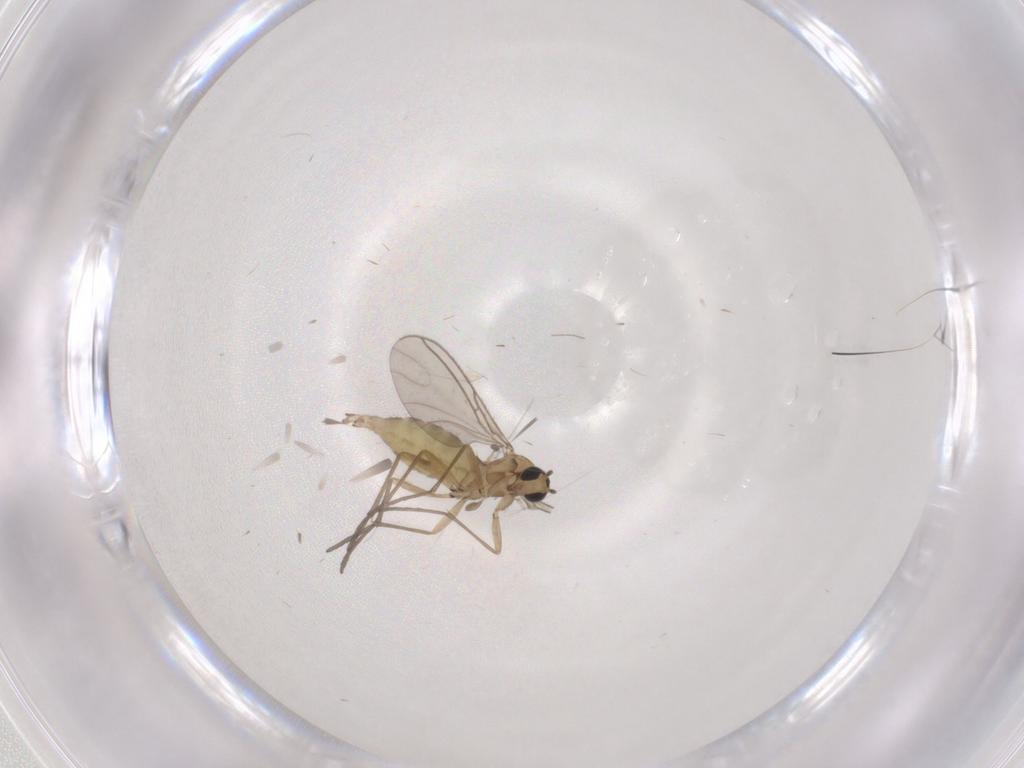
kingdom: Animalia
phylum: Arthropoda
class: Insecta
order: Diptera
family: Sciaridae
